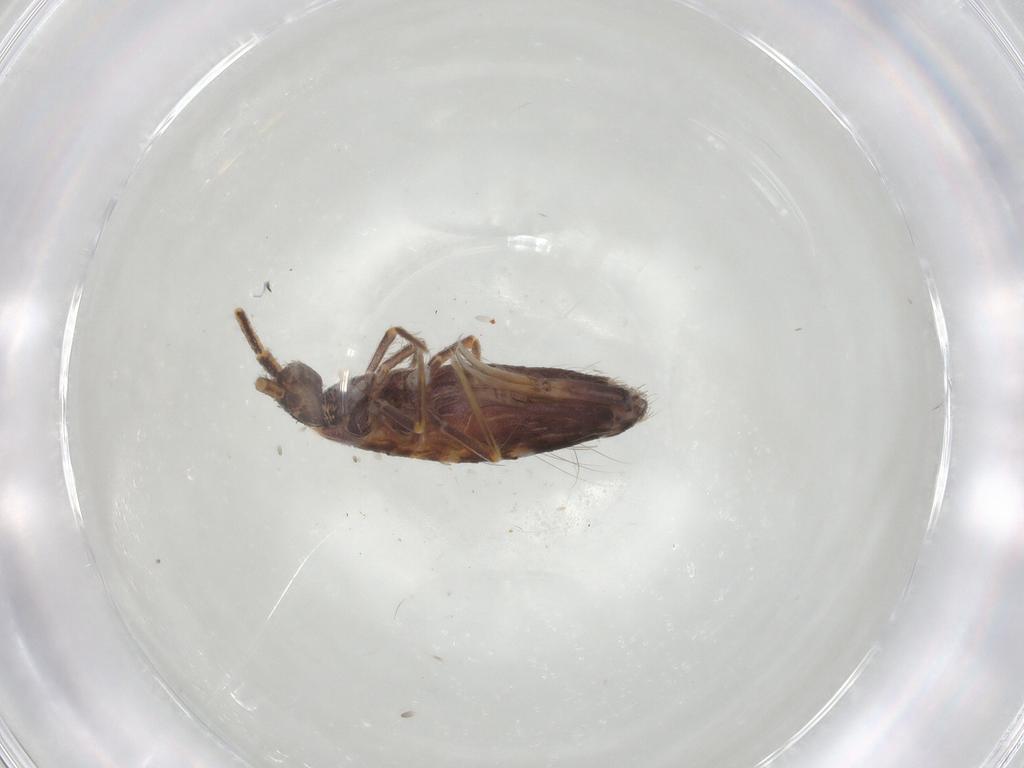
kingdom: Animalia
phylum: Arthropoda
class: Collembola
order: Entomobryomorpha
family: Entomobryidae
